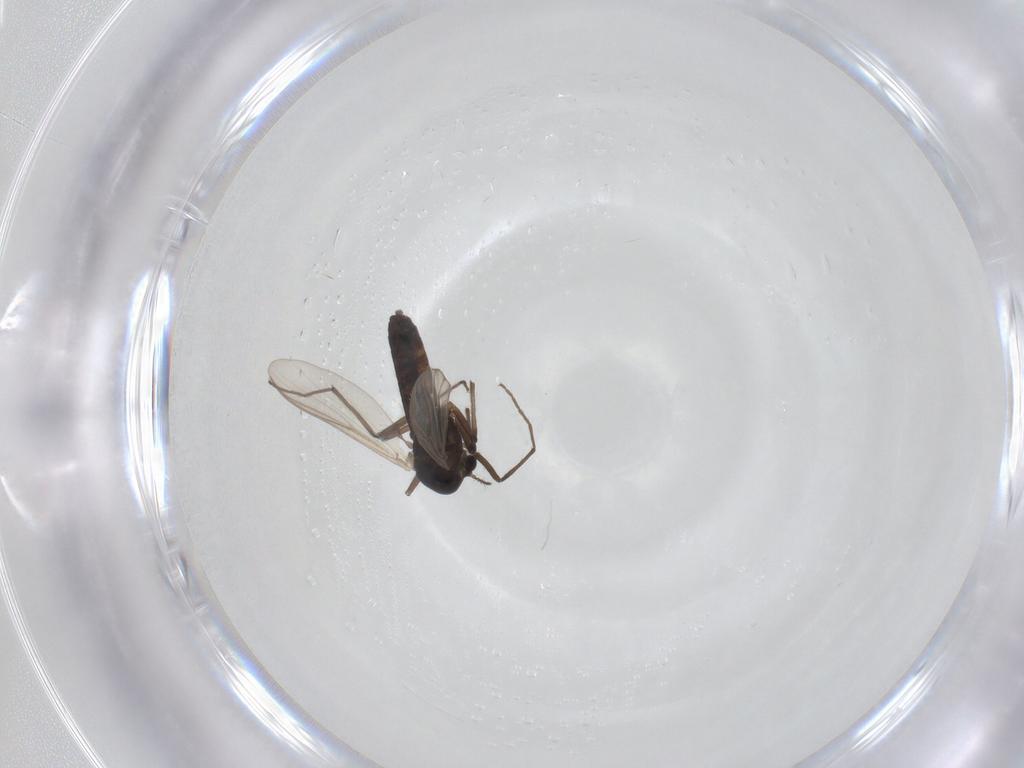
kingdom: Animalia
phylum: Arthropoda
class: Insecta
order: Diptera
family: Chironomidae
